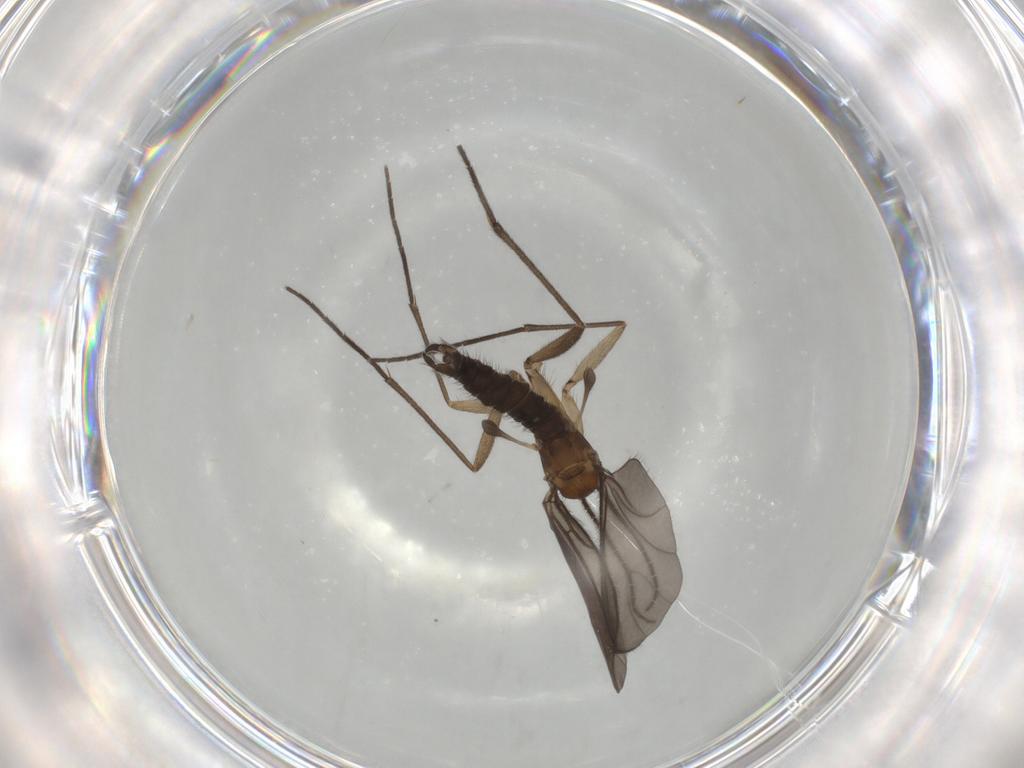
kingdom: Animalia
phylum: Arthropoda
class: Insecta
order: Diptera
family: Sciaridae
